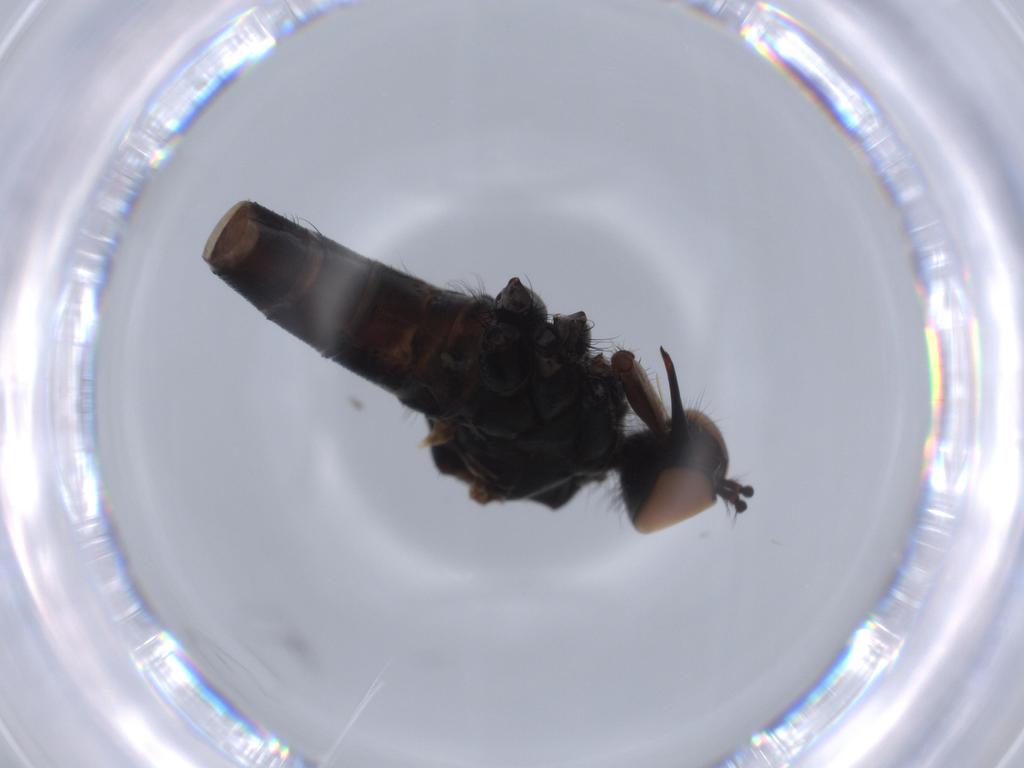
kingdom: Animalia
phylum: Arthropoda
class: Insecta
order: Diptera
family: Empididae
